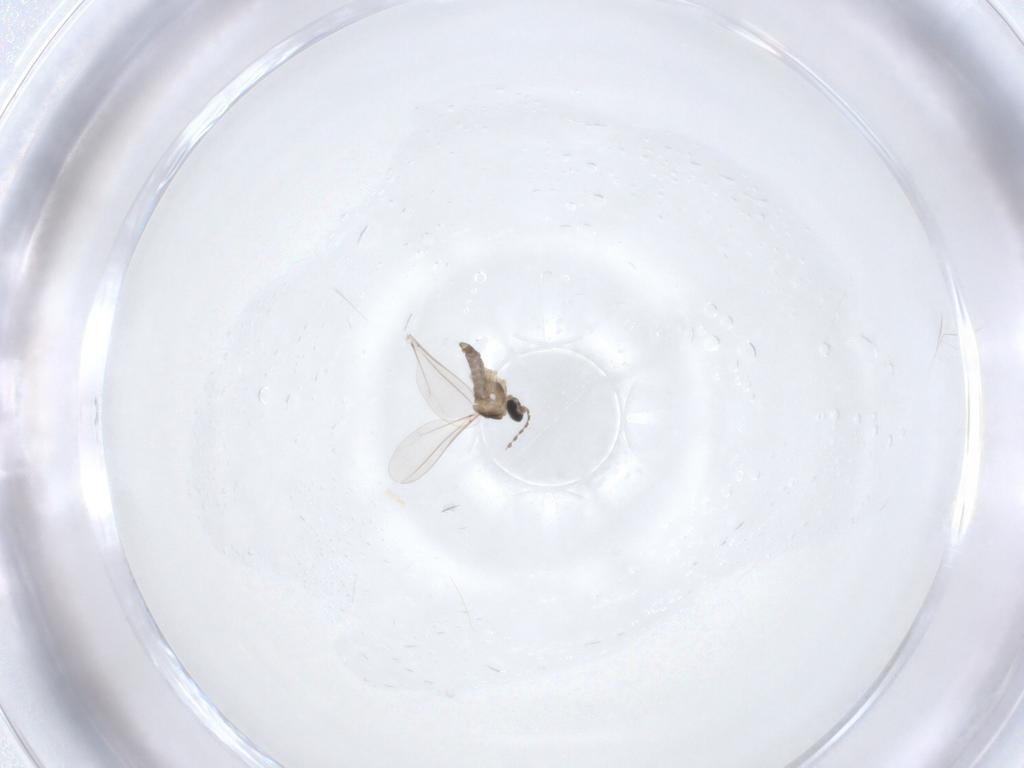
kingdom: Animalia
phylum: Arthropoda
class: Insecta
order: Diptera
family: Cecidomyiidae
